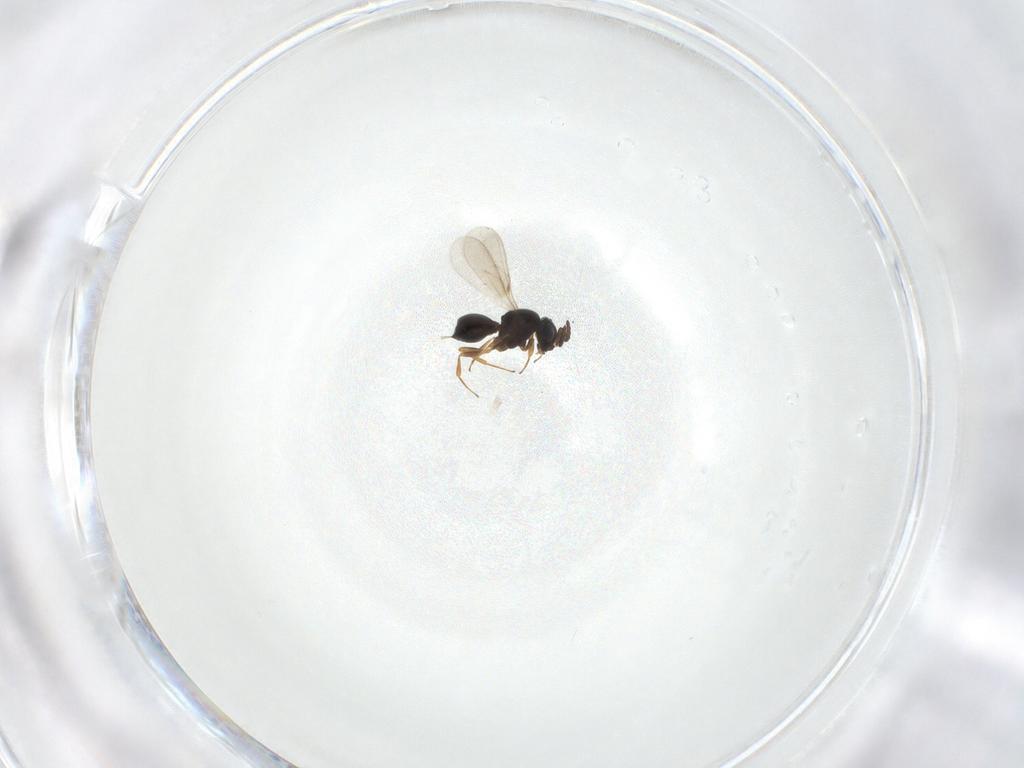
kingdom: Animalia
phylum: Arthropoda
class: Insecta
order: Hymenoptera
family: Scelionidae
